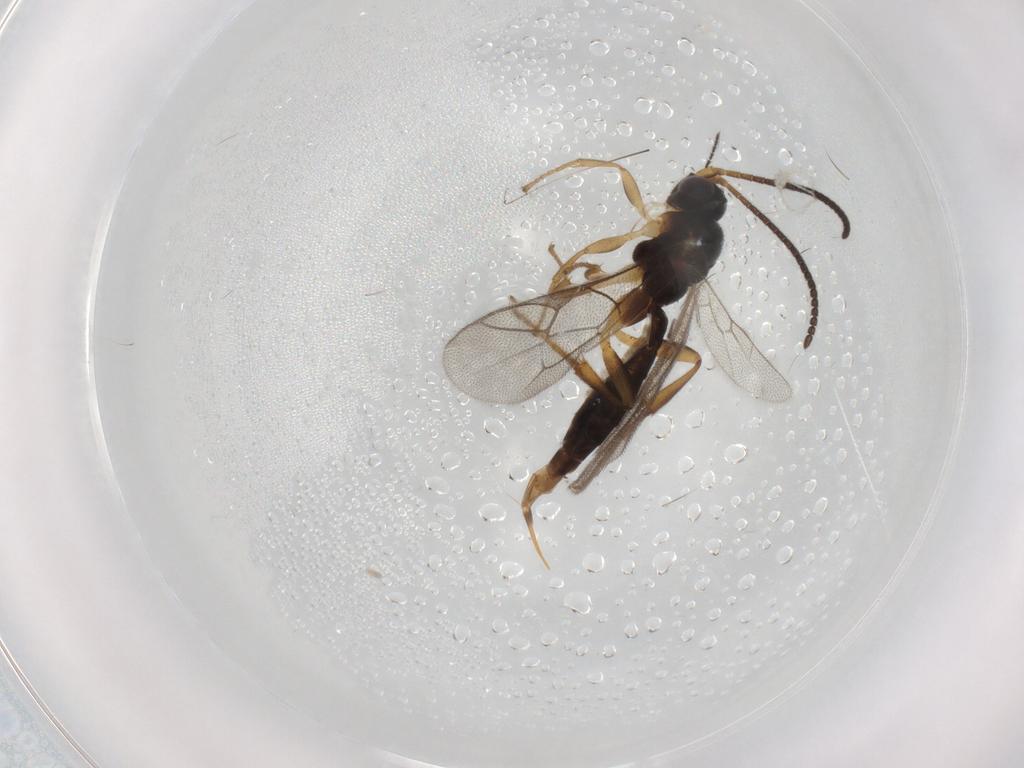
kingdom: Animalia
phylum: Arthropoda
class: Insecta
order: Hymenoptera
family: Ichneumonidae
